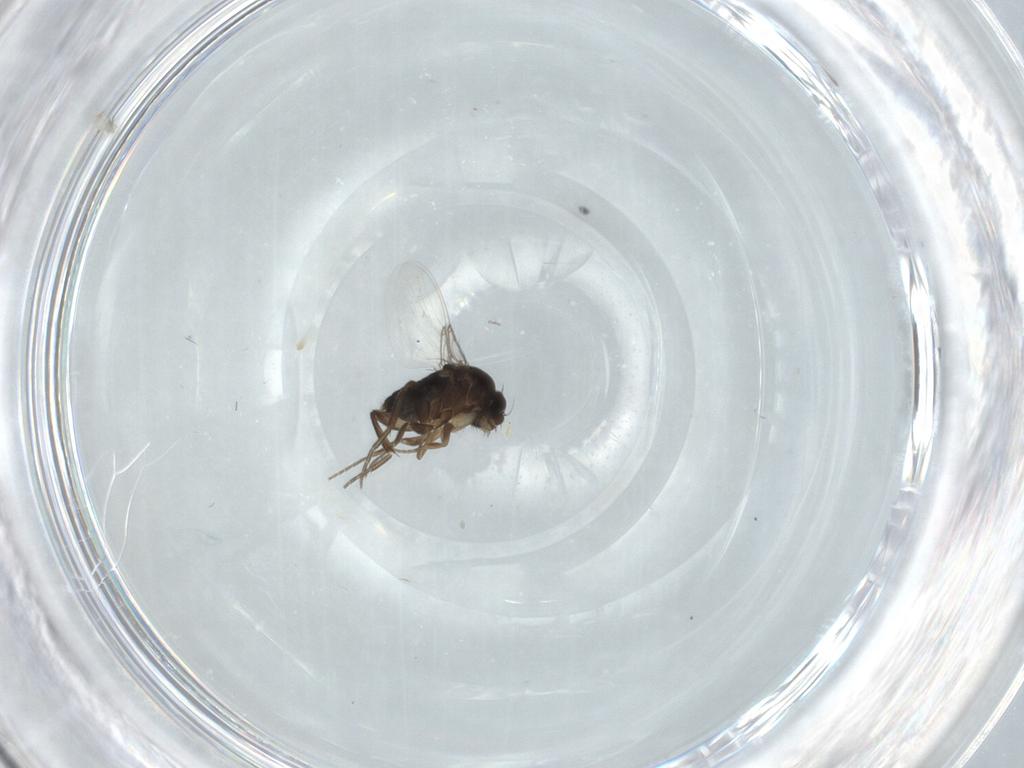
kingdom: Animalia
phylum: Arthropoda
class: Insecta
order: Diptera
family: Phoridae
